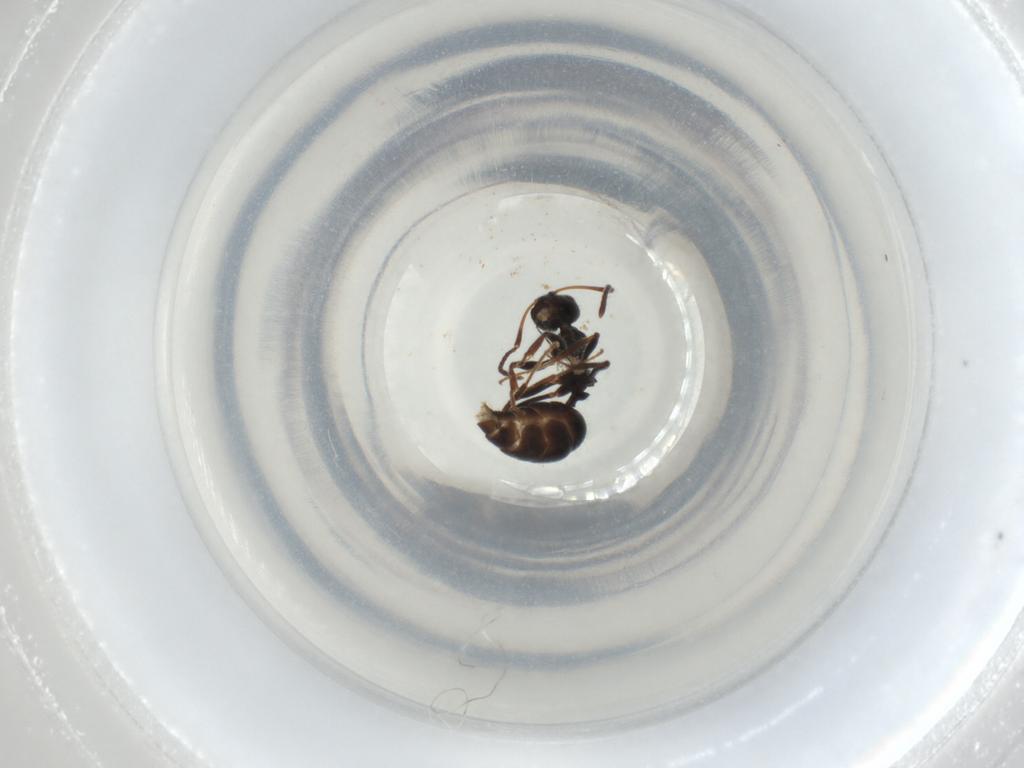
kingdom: Animalia
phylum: Arthropoda
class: Insecta
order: Hymenoptera
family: Formicidae
